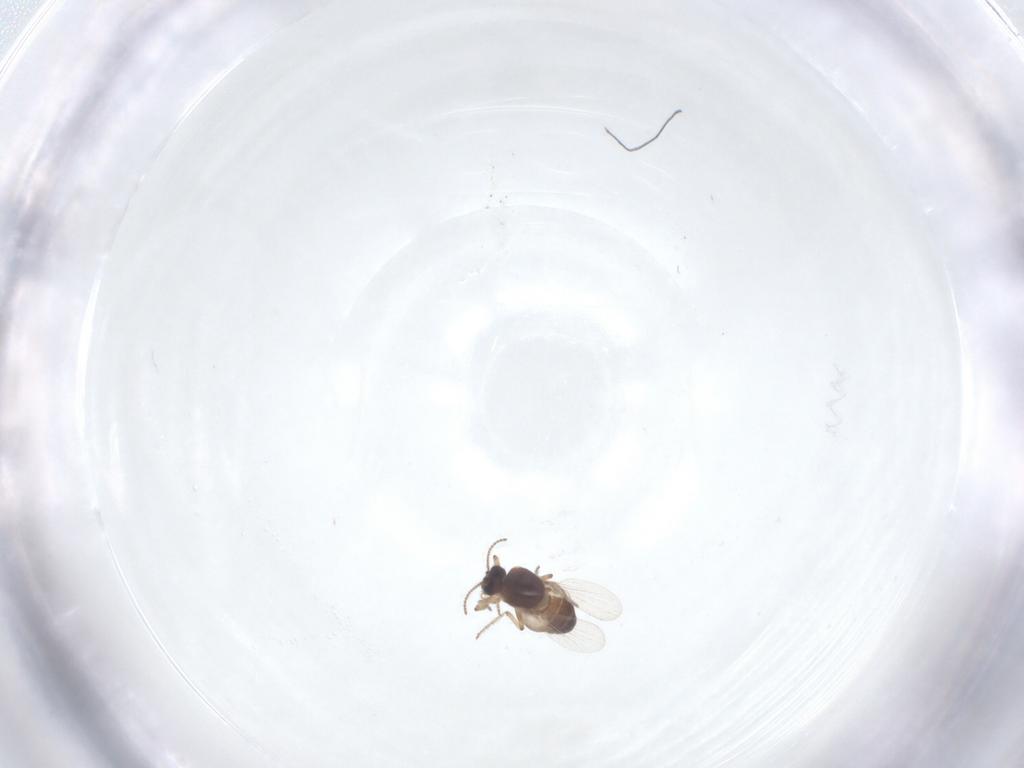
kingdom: Animalia
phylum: Arthropoda
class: Insecta
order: Diptera
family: Ceratopogonidae
